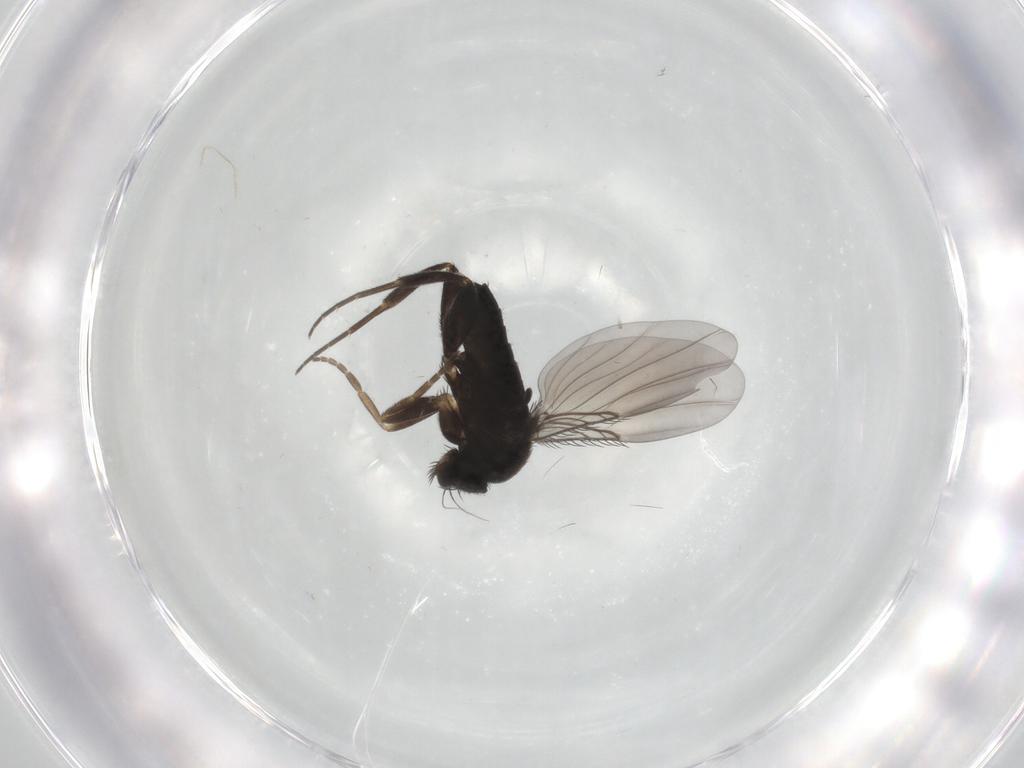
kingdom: Animalia
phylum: Arthropoda
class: Insecta
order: Diptera
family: Phoridae
